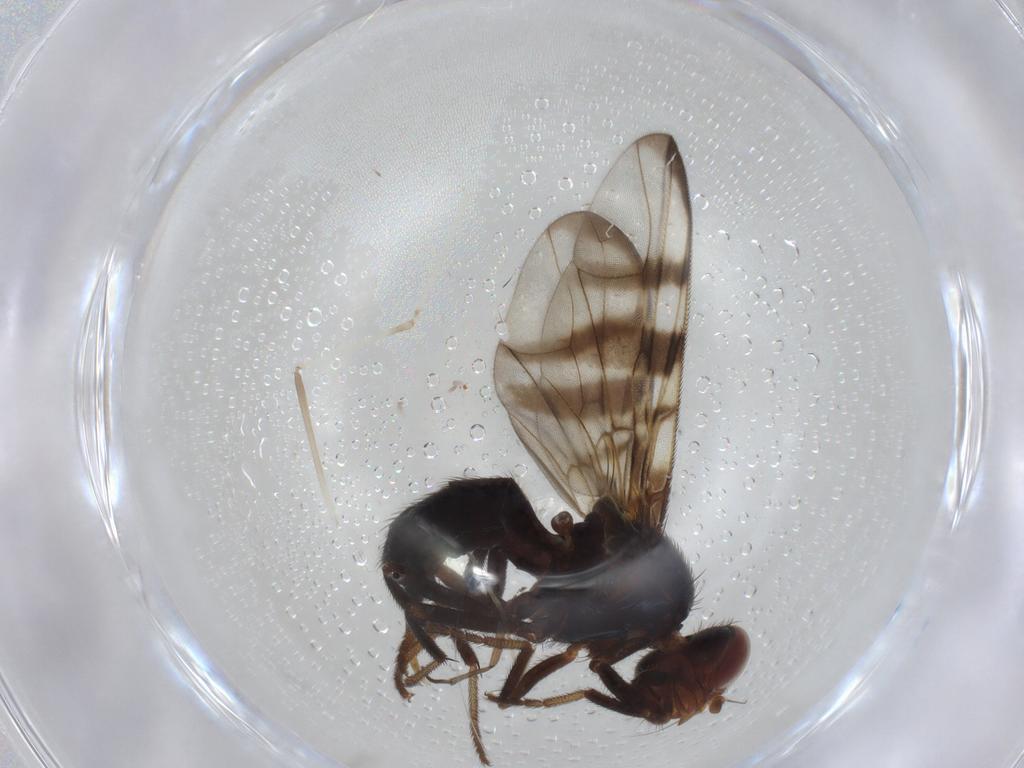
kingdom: Animalia
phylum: Arthropoda
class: Insecta
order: Diptera
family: Platystomatidae
